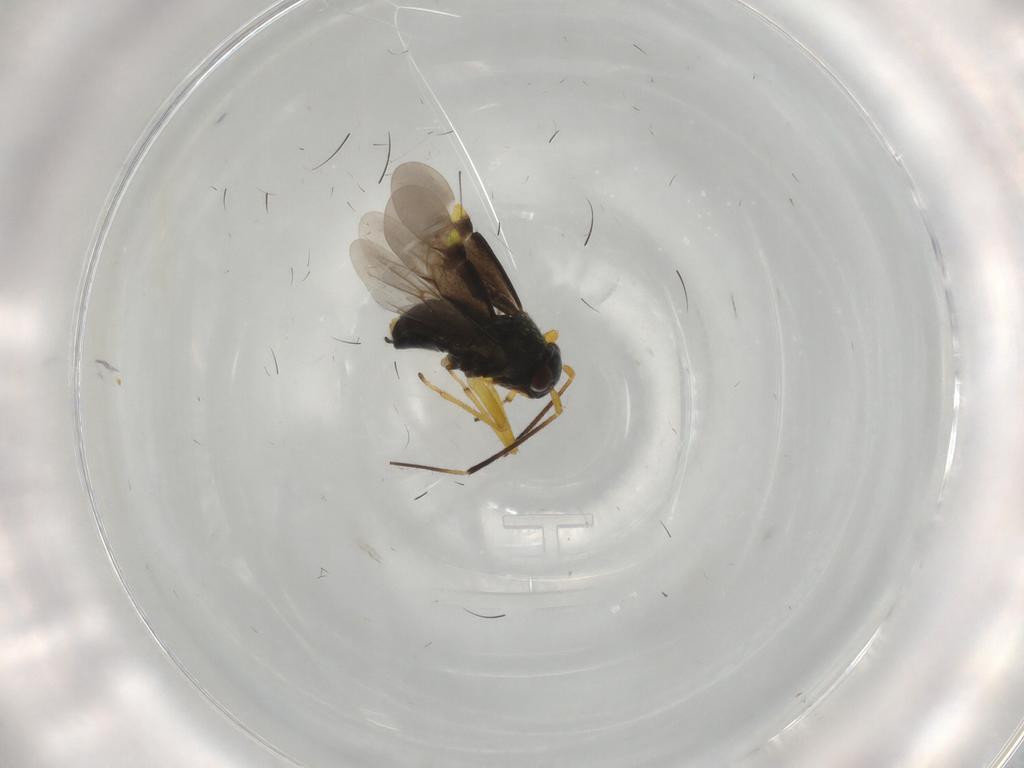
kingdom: Animalia
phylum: Arthropoda
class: Insecta
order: Hemiptera
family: Miridae
